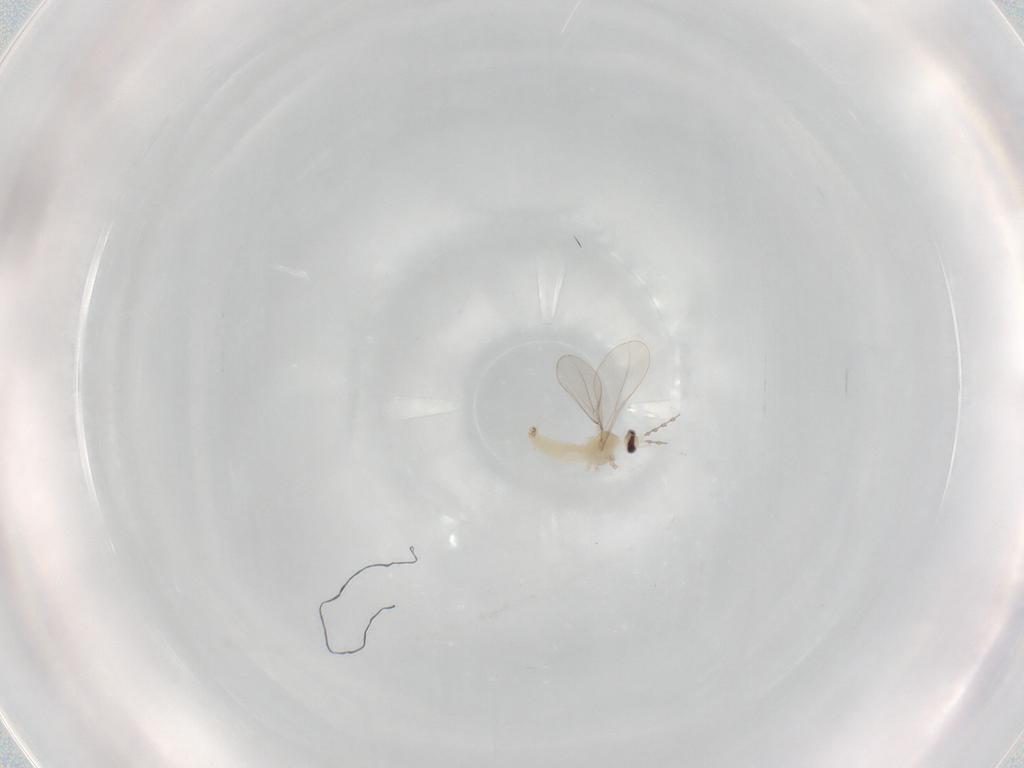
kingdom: Animalia
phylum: Arthropoda
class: Insecta
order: Diptera
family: Cecidomyiidae
